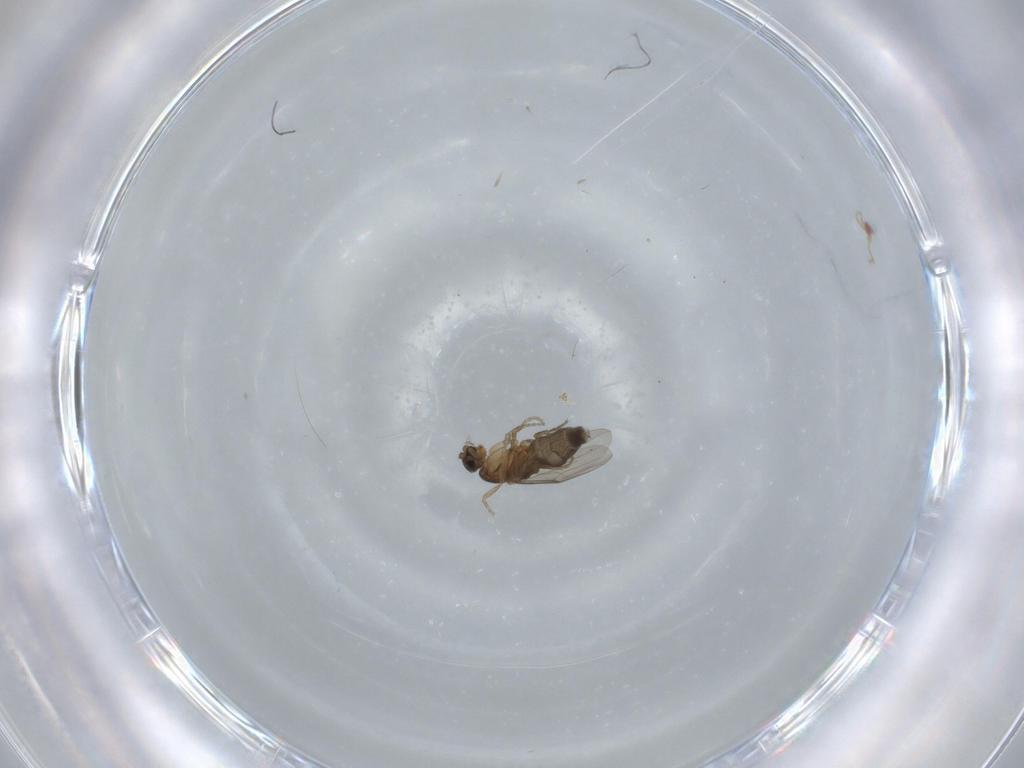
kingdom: Animalia
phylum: Arthropoda
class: Insecta
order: Diptera
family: Phoridae
